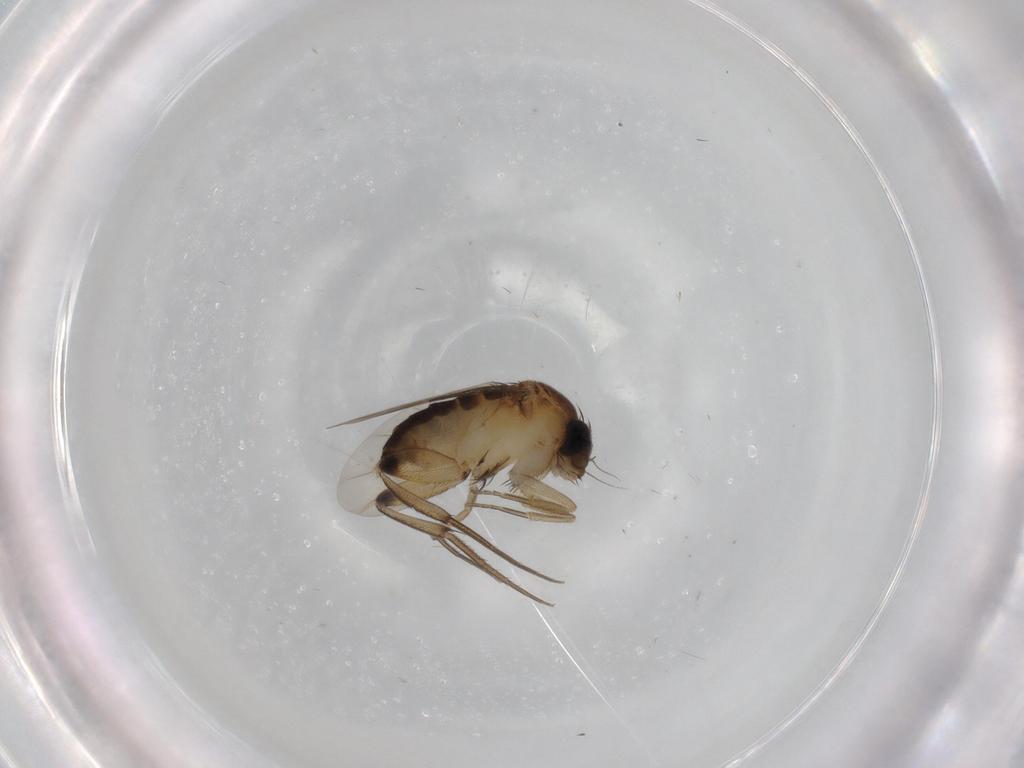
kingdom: Animalia
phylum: Arthropoda
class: Insecta
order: Diptera
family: Phoridae
